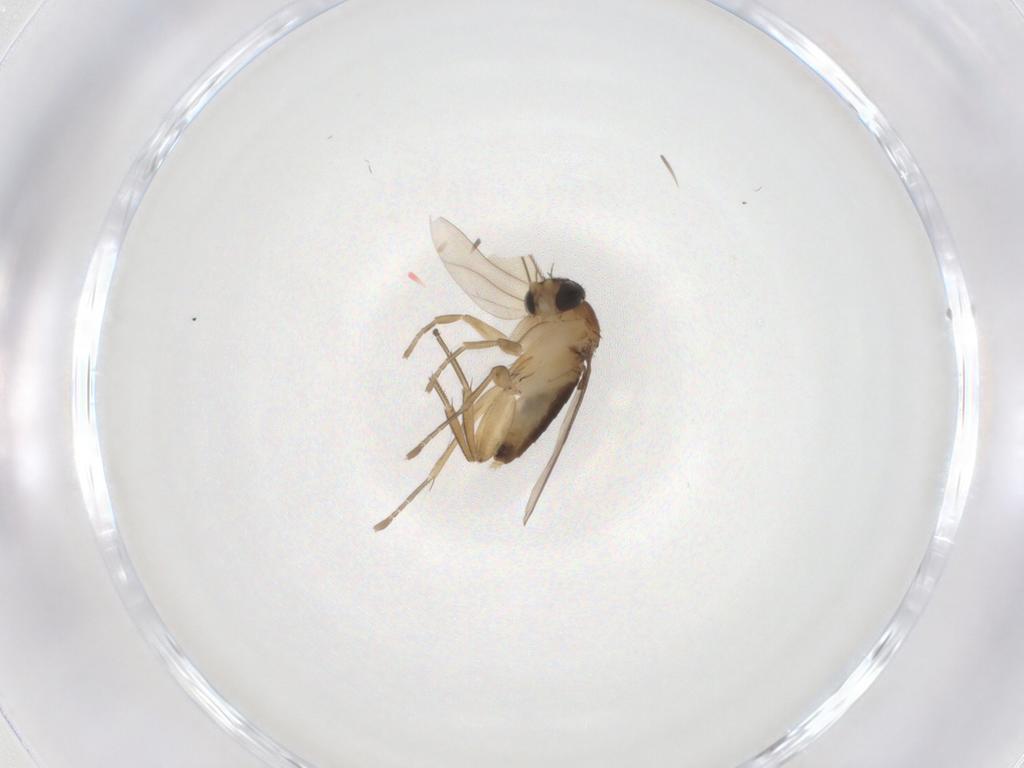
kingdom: Animalia
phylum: Arthropoda
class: Insecta
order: Diptera
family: Phoridae
